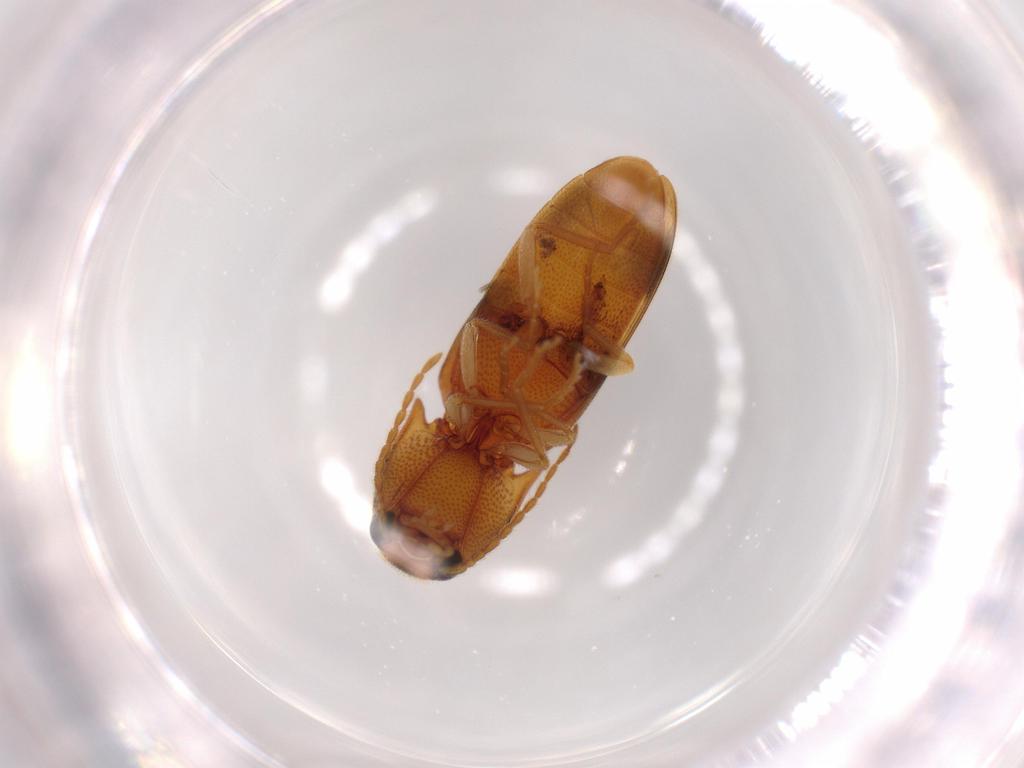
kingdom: Animalia
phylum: Arthropoda
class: Insecta
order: Coleoptera
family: Elateridae
